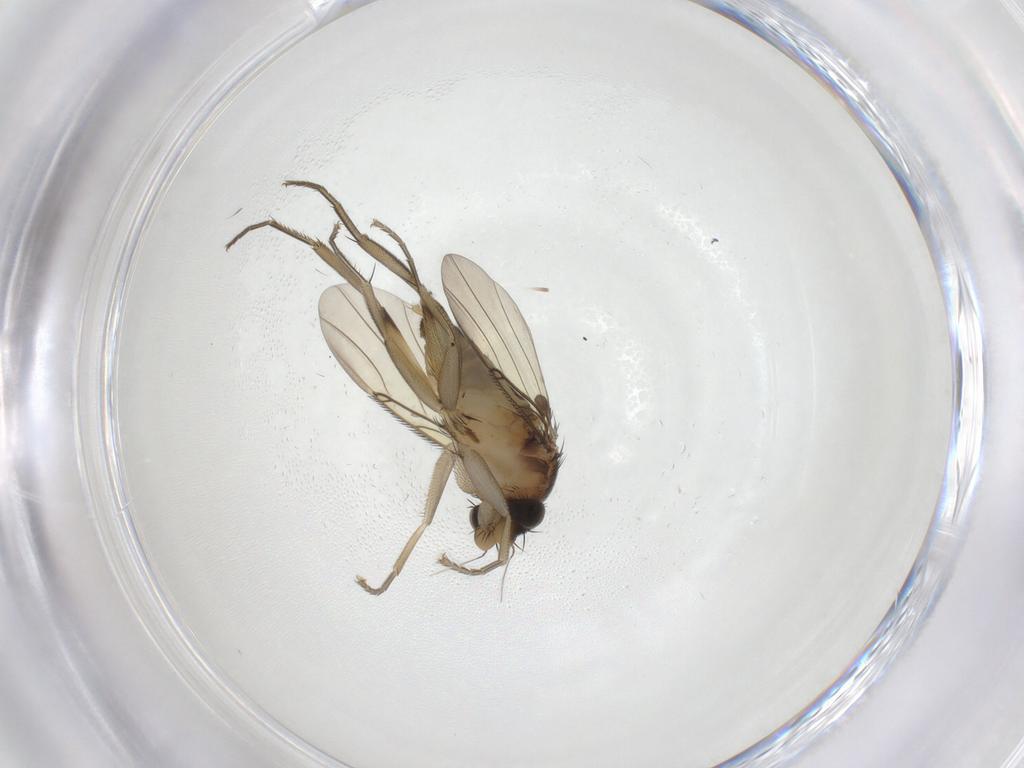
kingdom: Animalia
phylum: Arthropoda
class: Insecta
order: Diptera
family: Phoridae
